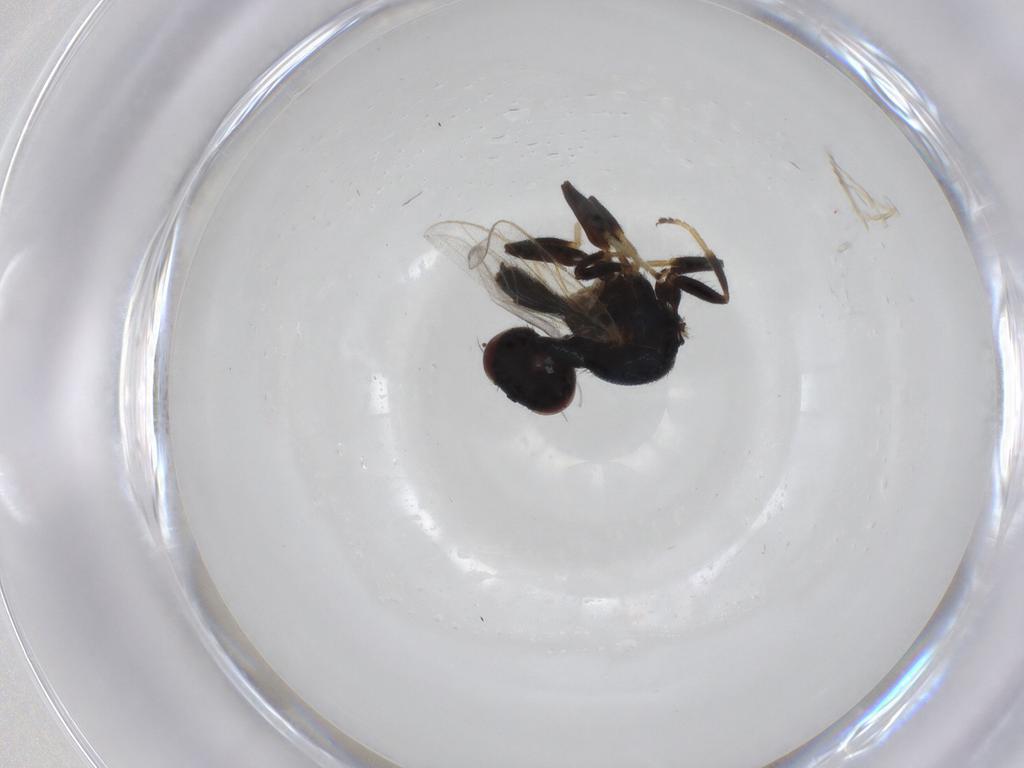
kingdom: Animalia
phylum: Arthropoda
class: Insecta
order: Diptera
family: Chloropidae
